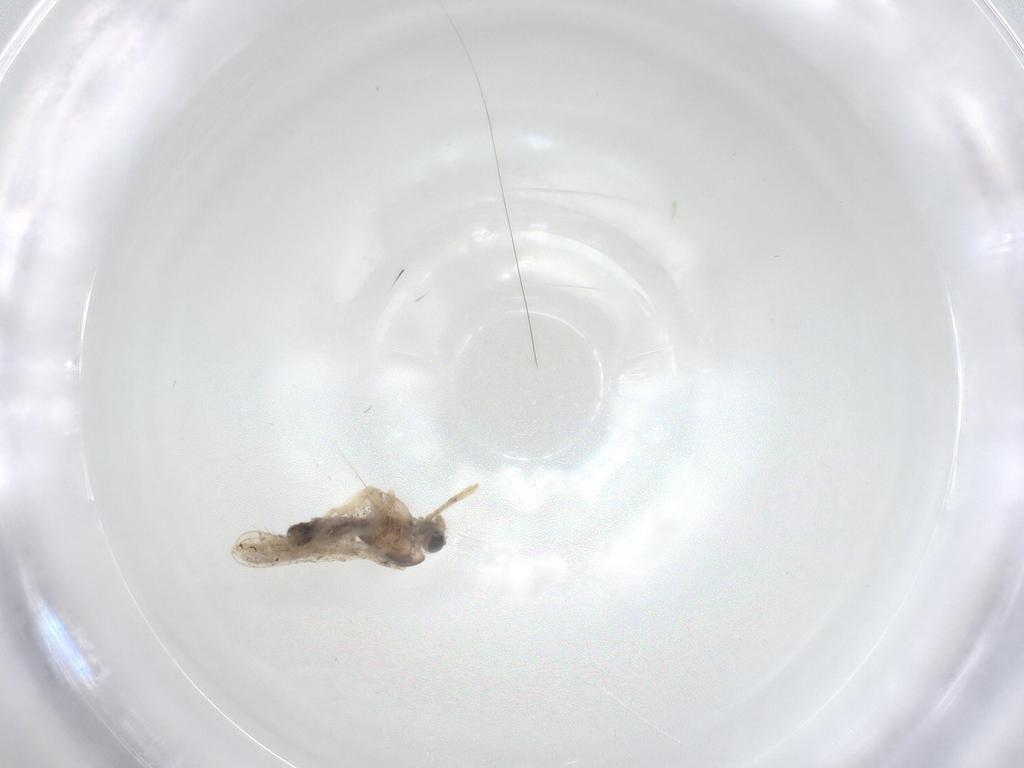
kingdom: Animalia
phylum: Arthropoda
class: Insecta
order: Diptera
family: Chironomidae
